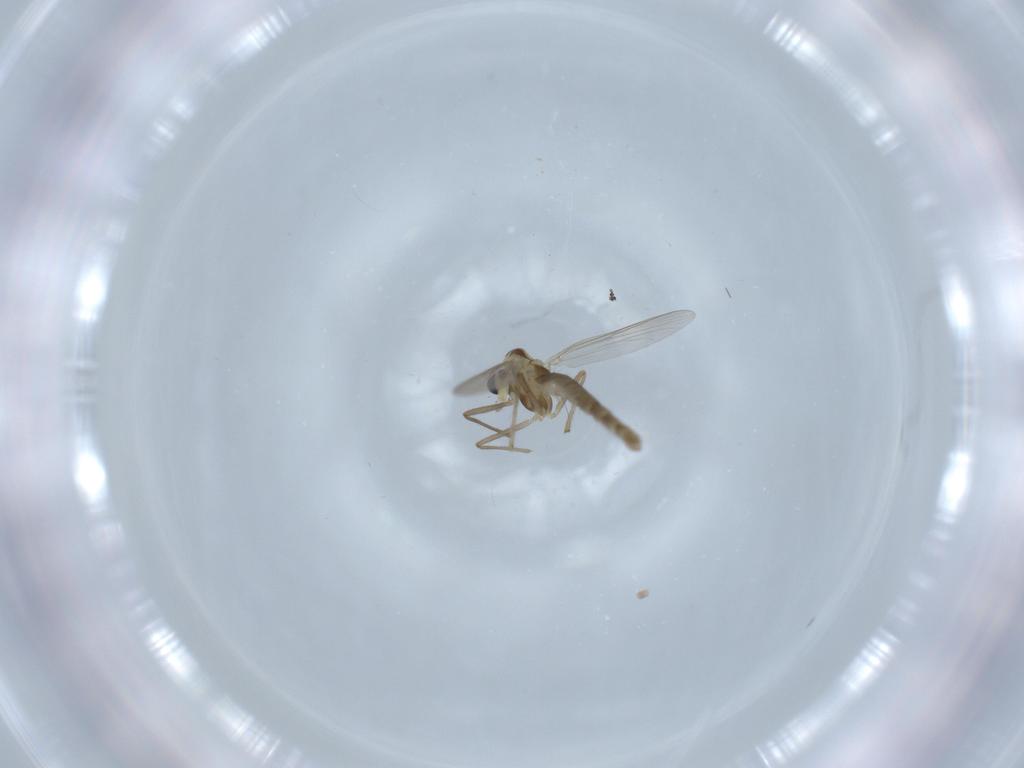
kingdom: Animalia
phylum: Arthropoda
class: Insecta
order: Diptera
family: Chironomidae
